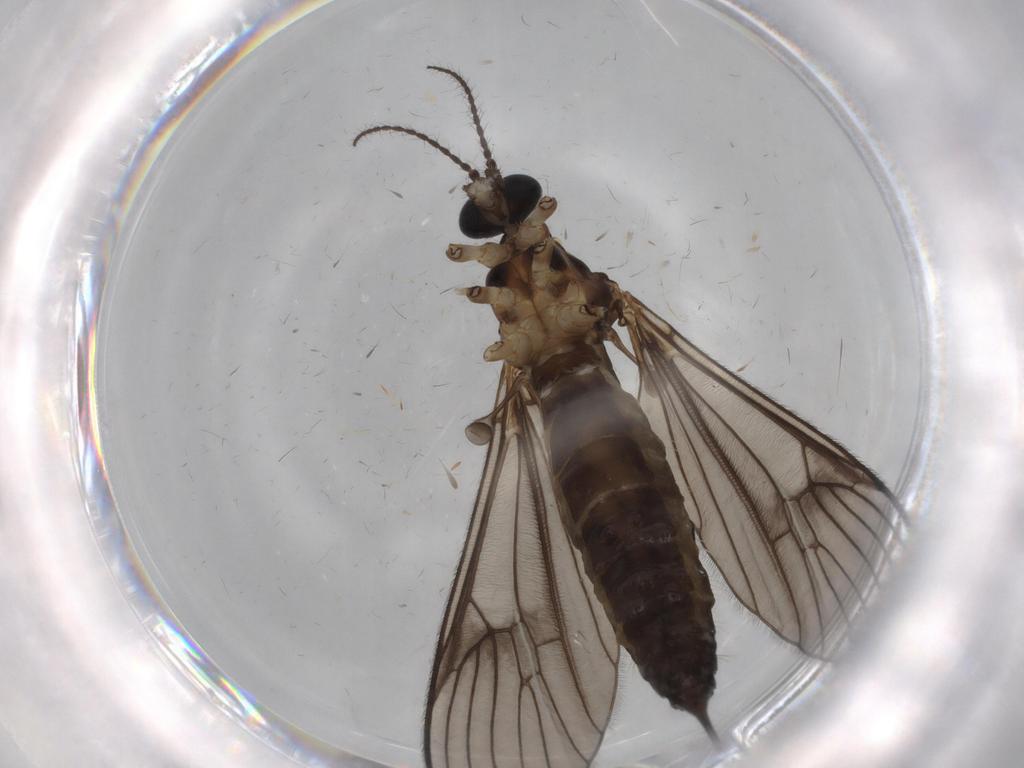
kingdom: Animalia
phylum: Arthropoda
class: Insecta
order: Diptera
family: Limoniidae
